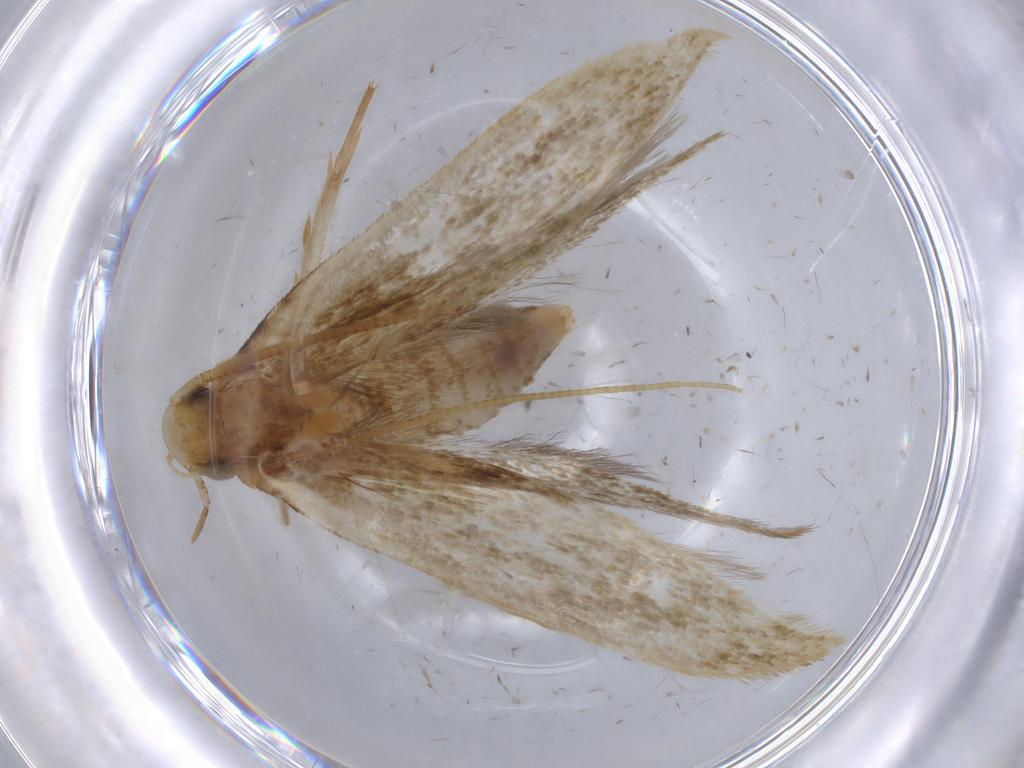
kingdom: Animalia
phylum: Arthropoda
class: Insecta
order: Lepidoptera
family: Tineidae
